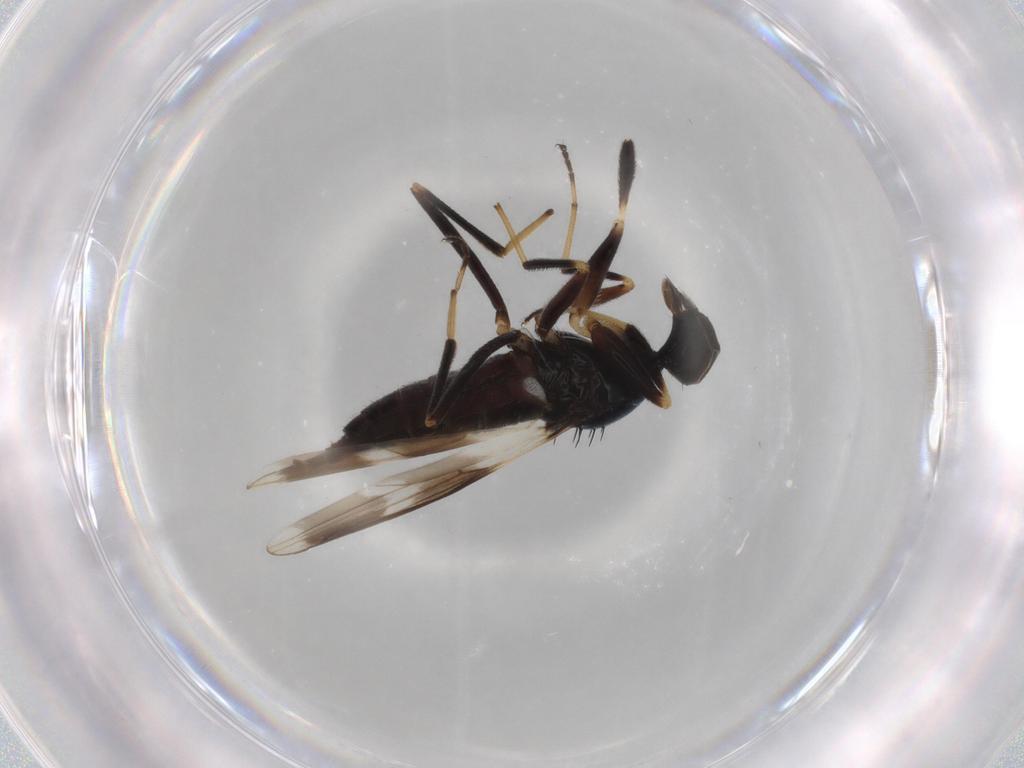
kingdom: Animalia
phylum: Arthropoda
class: Insecta
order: Diptera
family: Hybotidae
